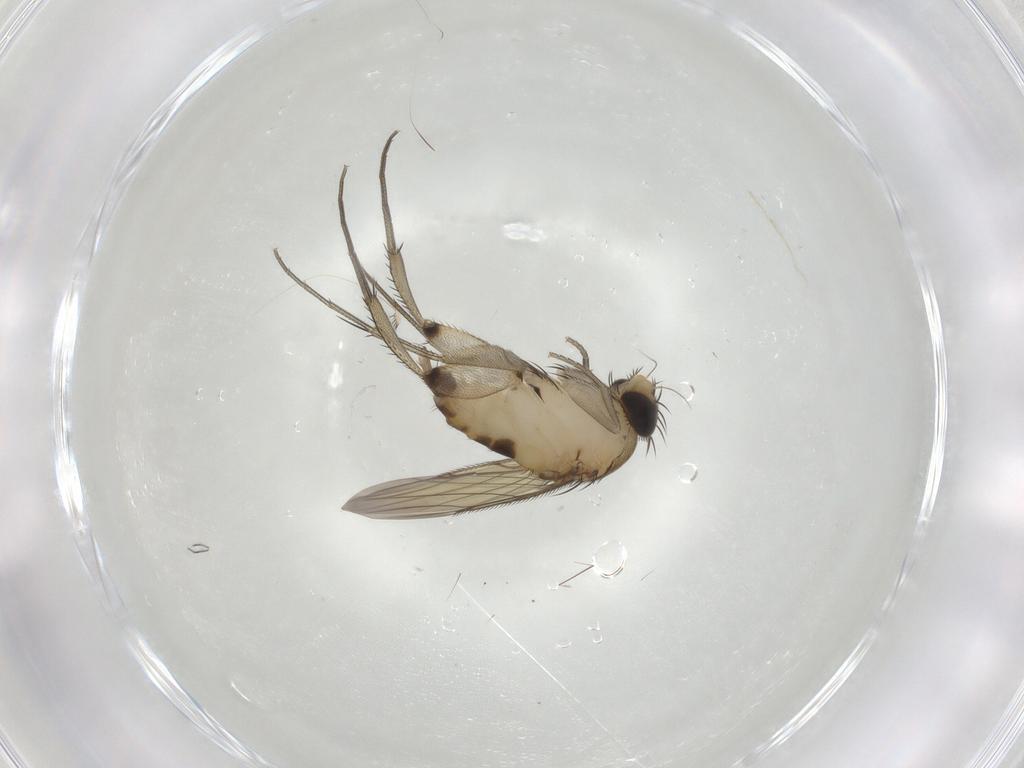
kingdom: Animalia
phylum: Arthropoda
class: Insecta
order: Diptera
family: Phoridae
